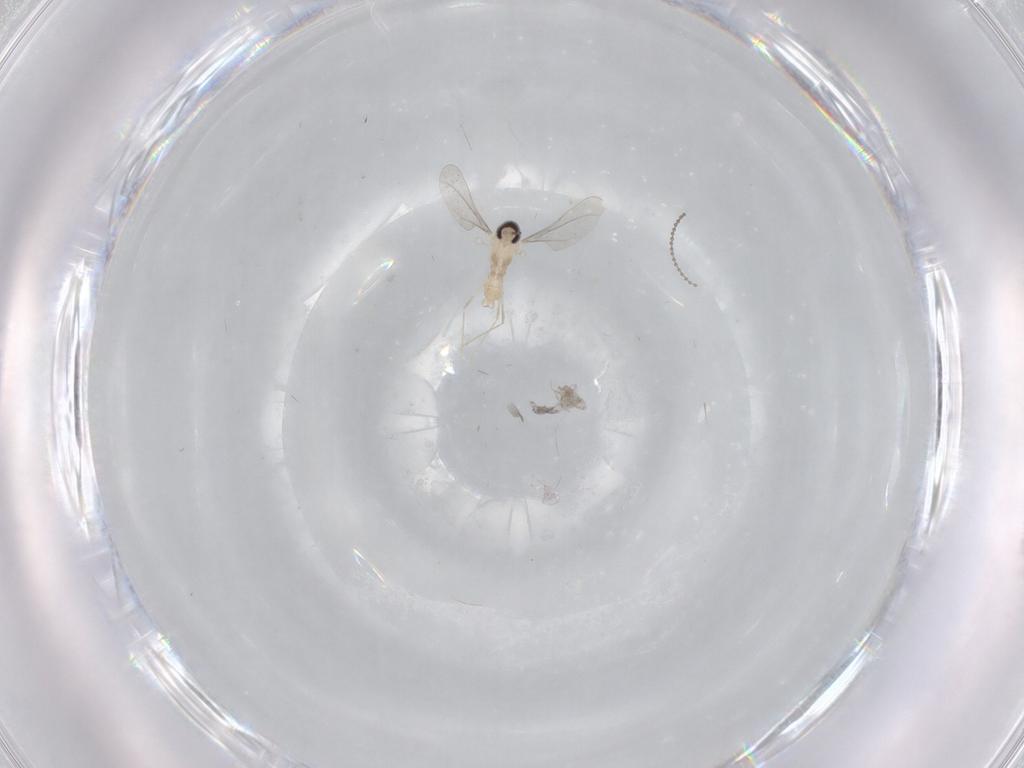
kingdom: Animalia
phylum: Arthropoda
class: Insecta
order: Diptera
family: Cecidomyiidae
